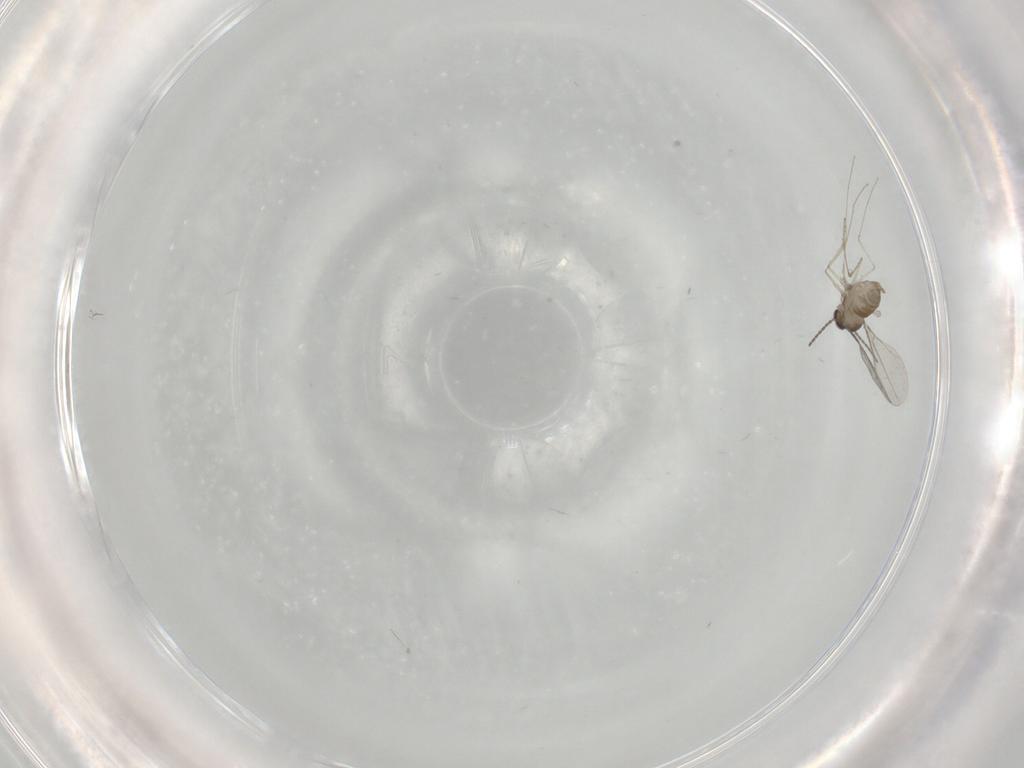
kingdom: Animalia
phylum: Arthropoda
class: Insecta
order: Diptera
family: Cecidomyiidae
